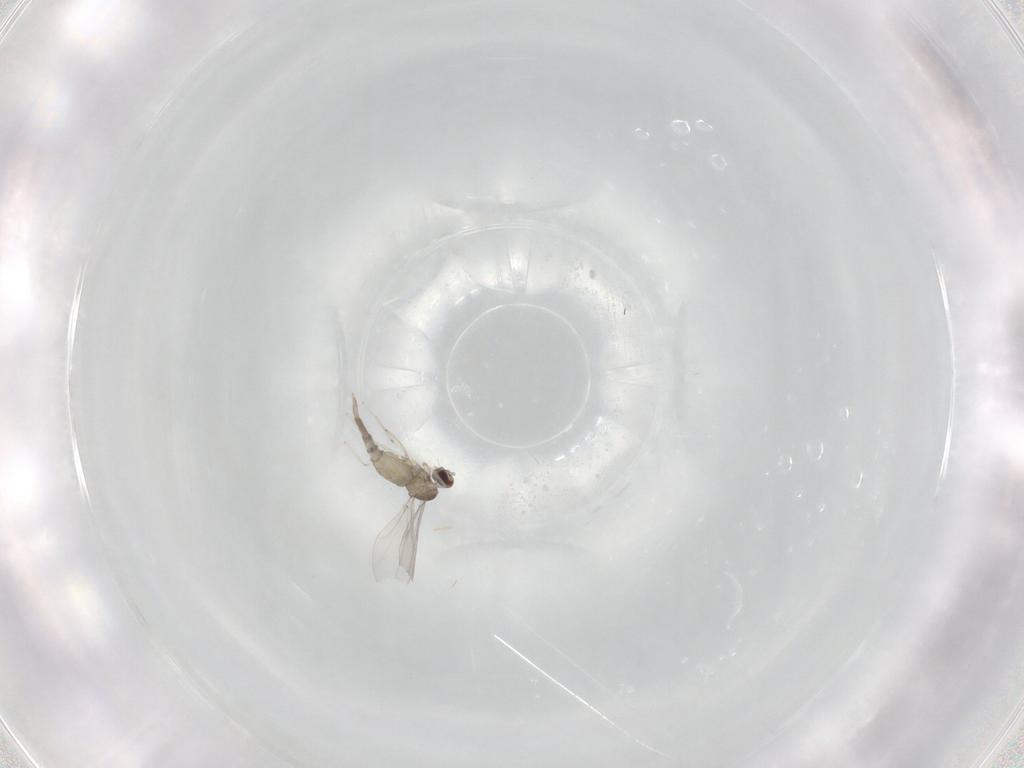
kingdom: Animalia
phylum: Arthropoda
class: Insecta
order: Diptera
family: Cecidomyiidae
